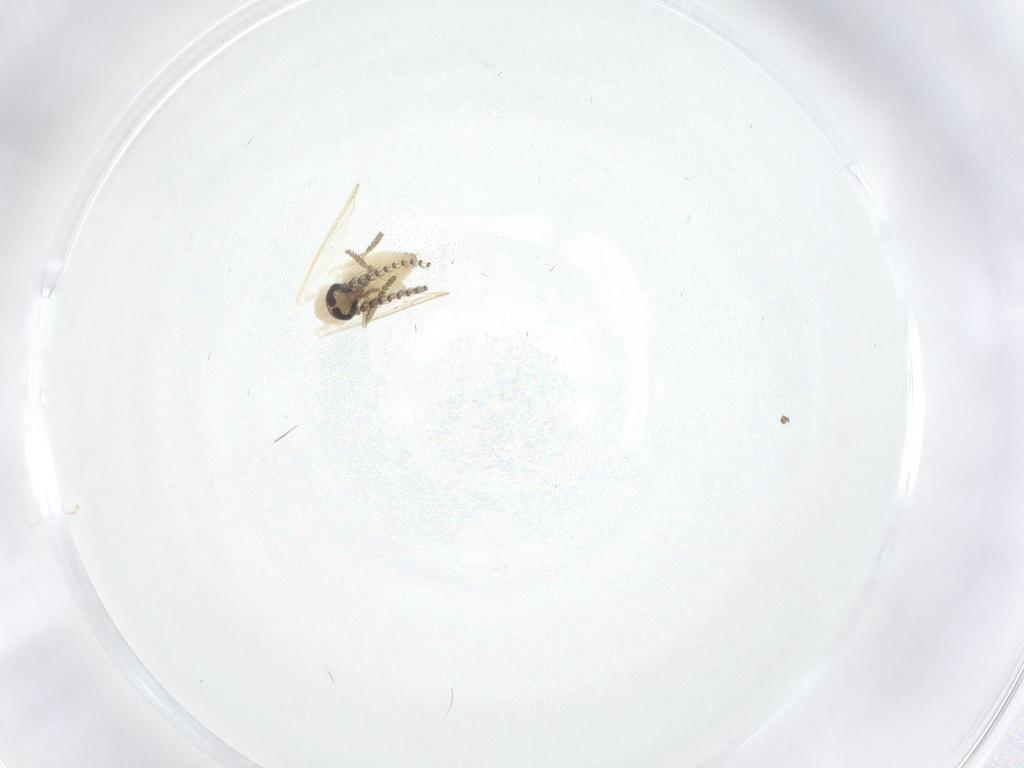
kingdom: Animalia
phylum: Arthropoda
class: Insecta
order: Diptera
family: Chironomidae
